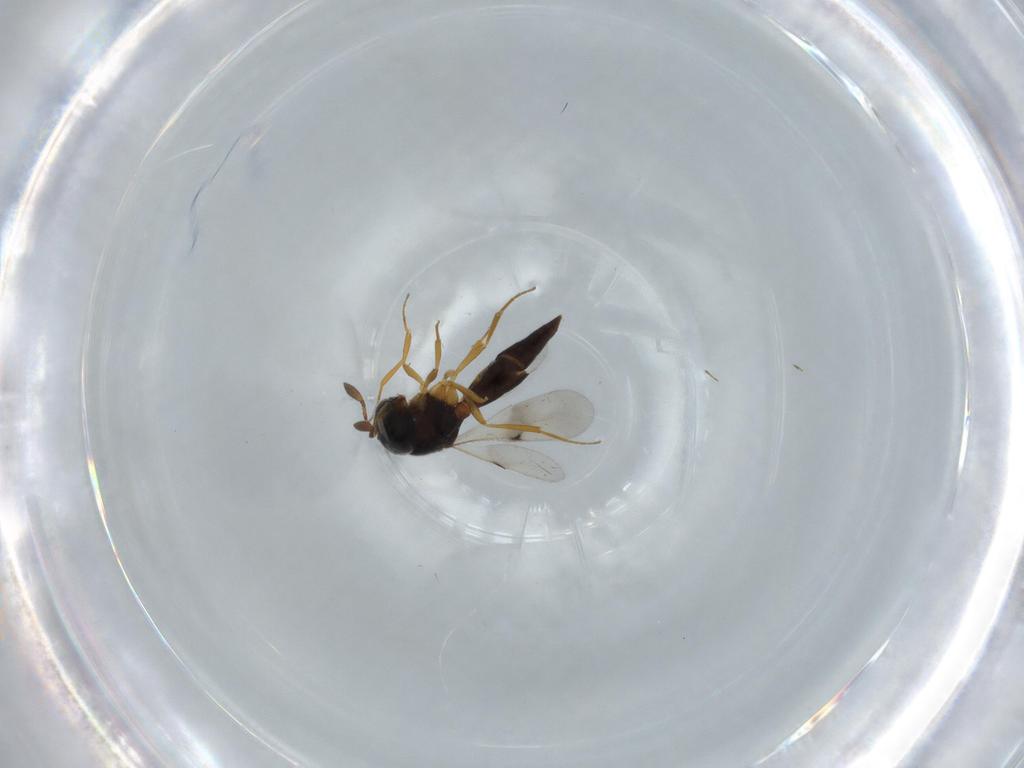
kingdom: Animalia
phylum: Arthropoda
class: Insecta
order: Hymenoptera
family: Scelionidae
